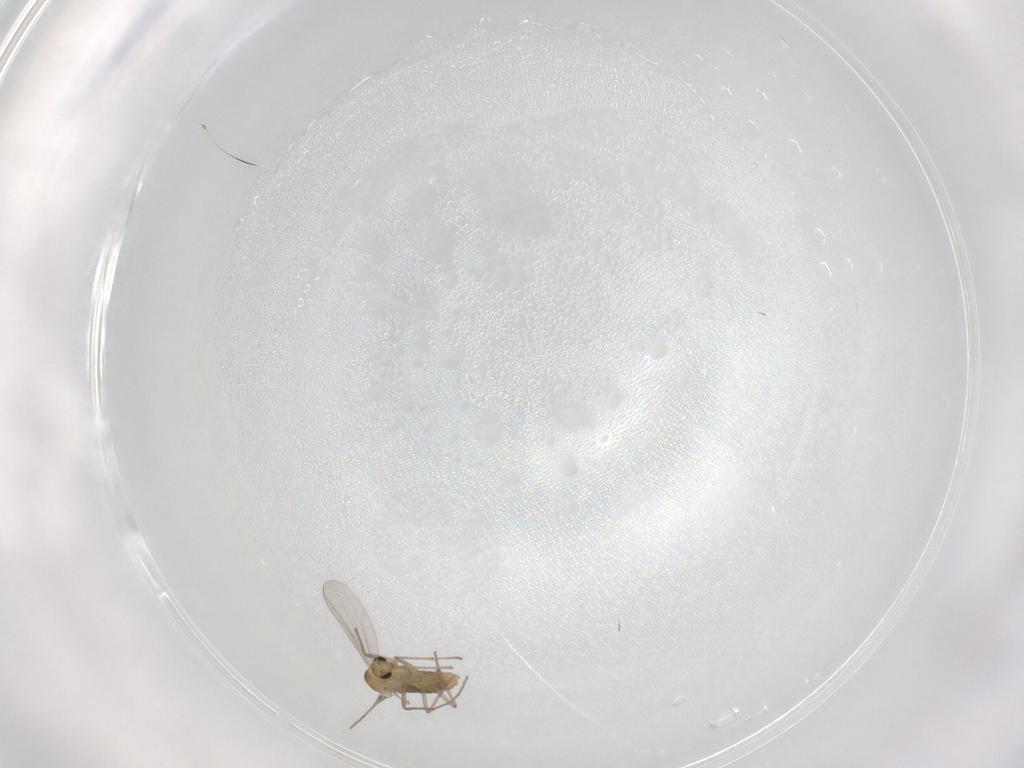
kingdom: Animalia
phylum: Arthropoda
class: Insecta
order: Diptera
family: Chironomidae
